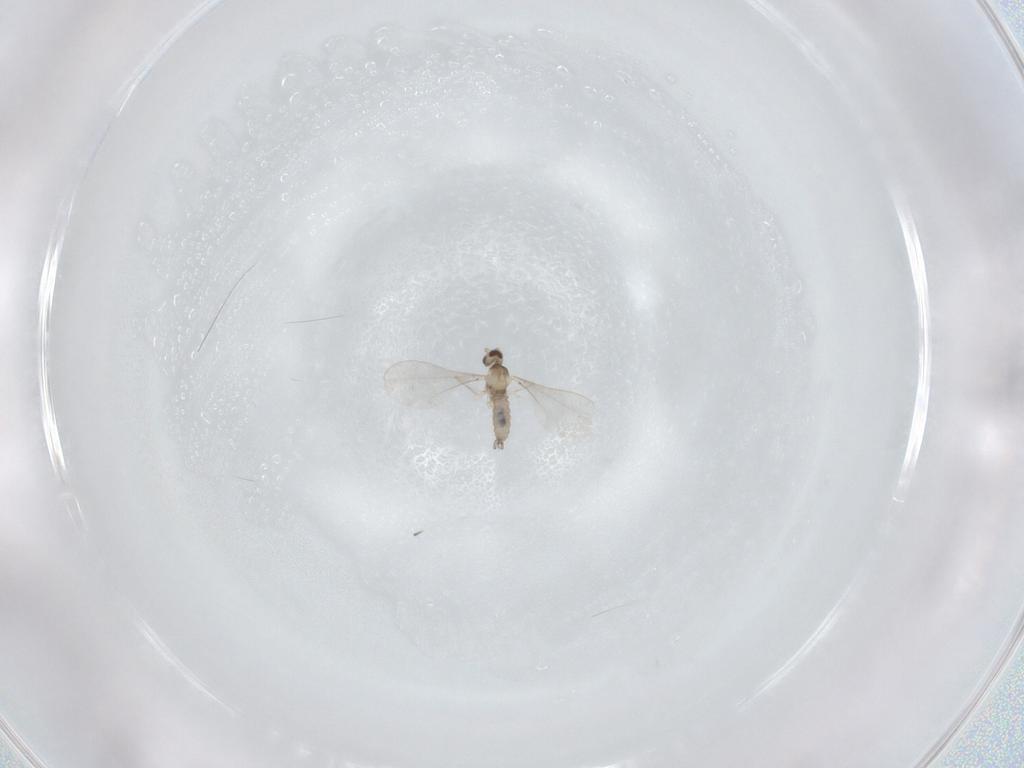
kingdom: Animalia
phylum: Arthropoda
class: Insecta
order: Diptera
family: Cecidomyiidae
